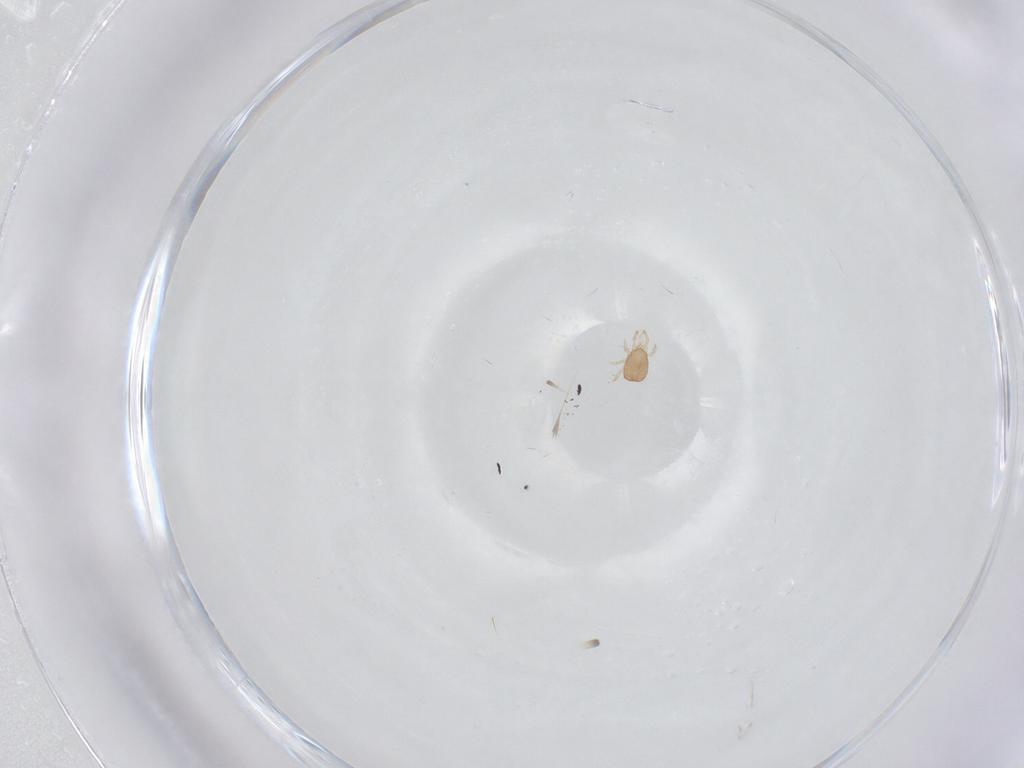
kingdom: Animalia
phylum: Arthropoda
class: Arachnida
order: Mesostigmata
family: Ascidae
